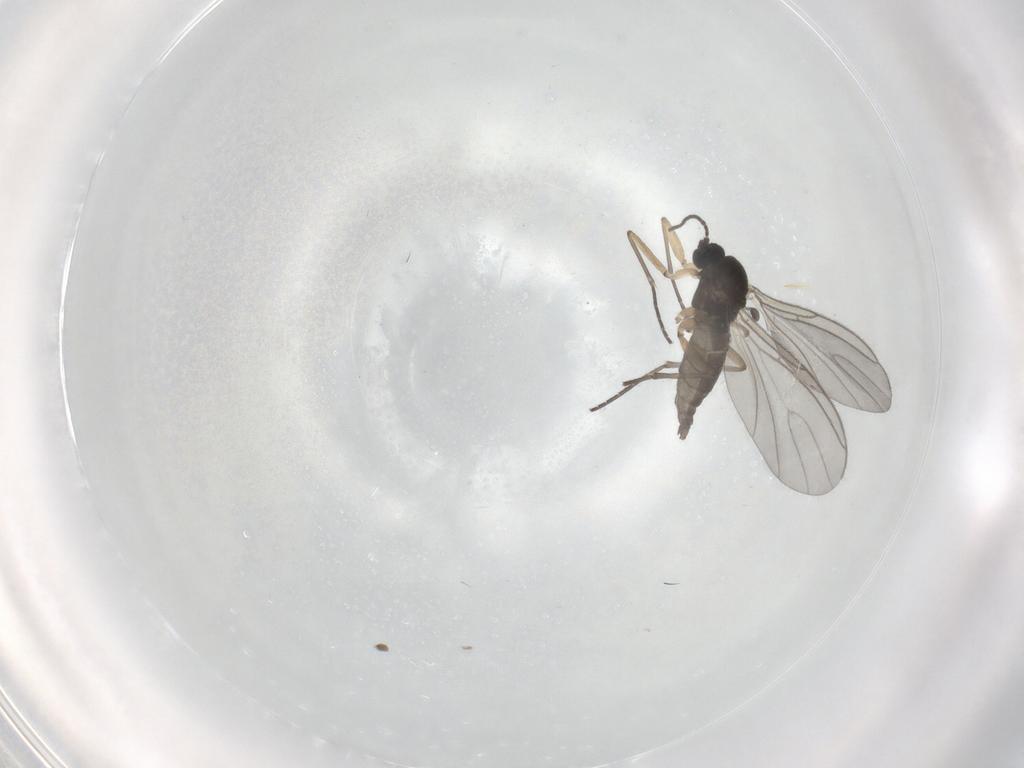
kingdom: Animalia
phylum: Arthropoda
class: Insecta
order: Diptera
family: Sciaridae
